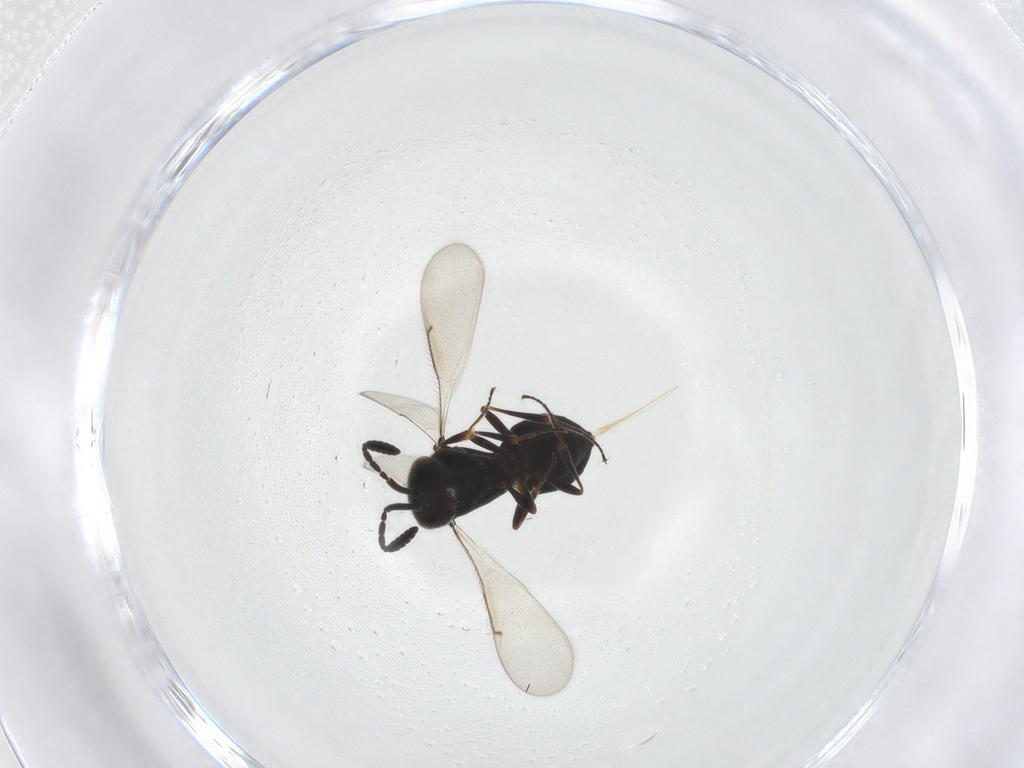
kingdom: Animalia
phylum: Arthropoda
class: Insecta
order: Hymenoptera
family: Scelionidae
